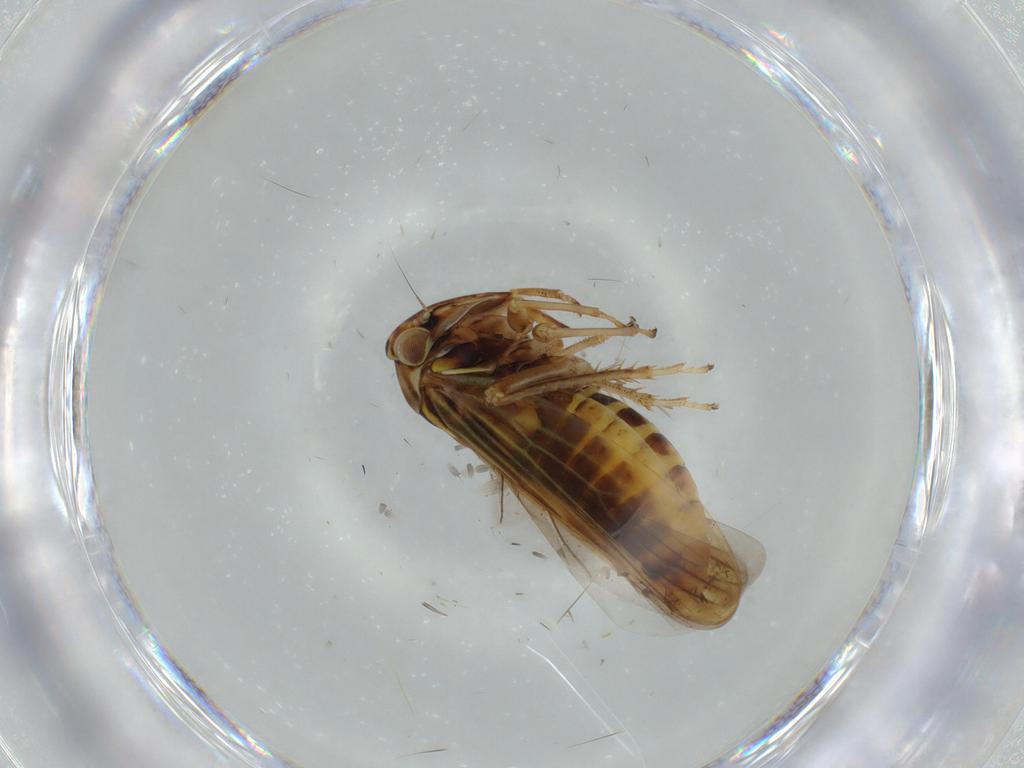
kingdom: Animalia
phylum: Arthropoda
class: Insecta
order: Hemiptera
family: Cicadellidae
